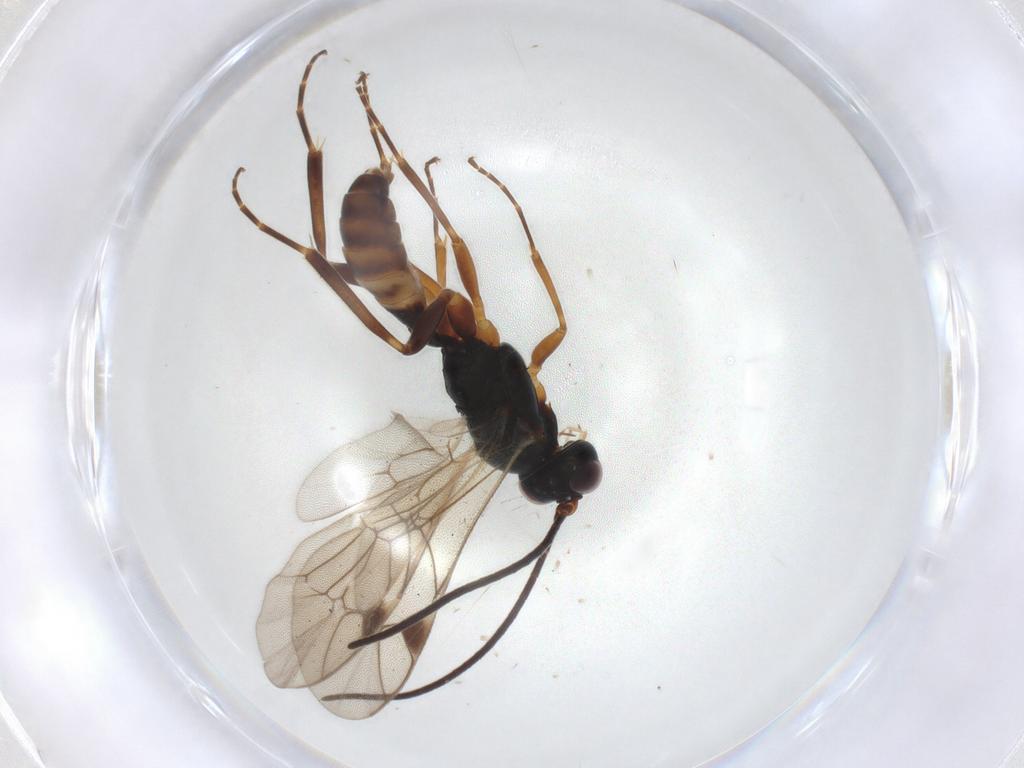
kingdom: Animalia
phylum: Arthropoda
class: Insecta
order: Hymenoptera
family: Ichneumonidae
